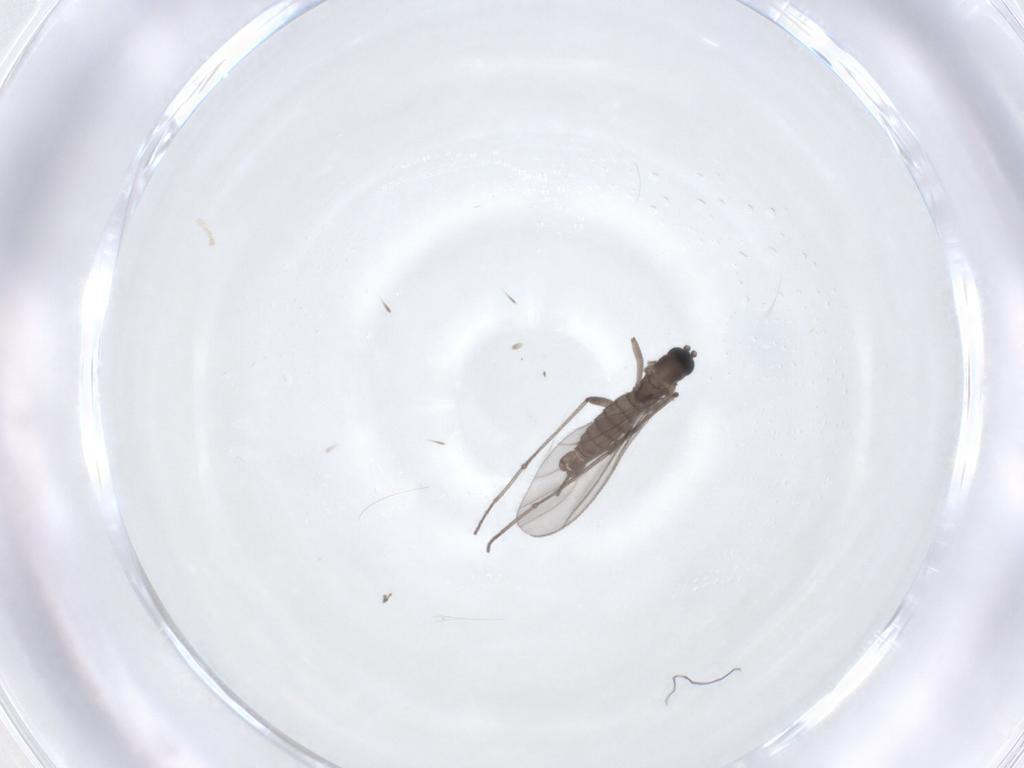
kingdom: Animalia
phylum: Arthropoda
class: Insecta
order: Diptera
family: Sciaridae
